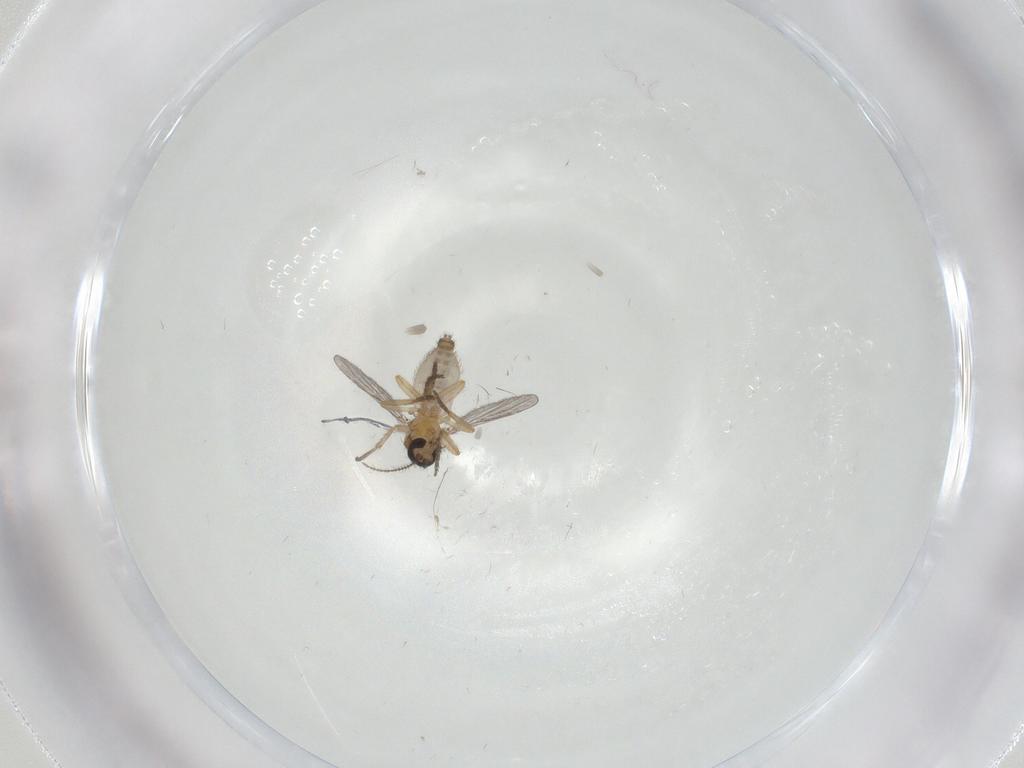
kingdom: Animalia
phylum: Arthropoda
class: Insecta
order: Diptera
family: Ceratopogonidae
